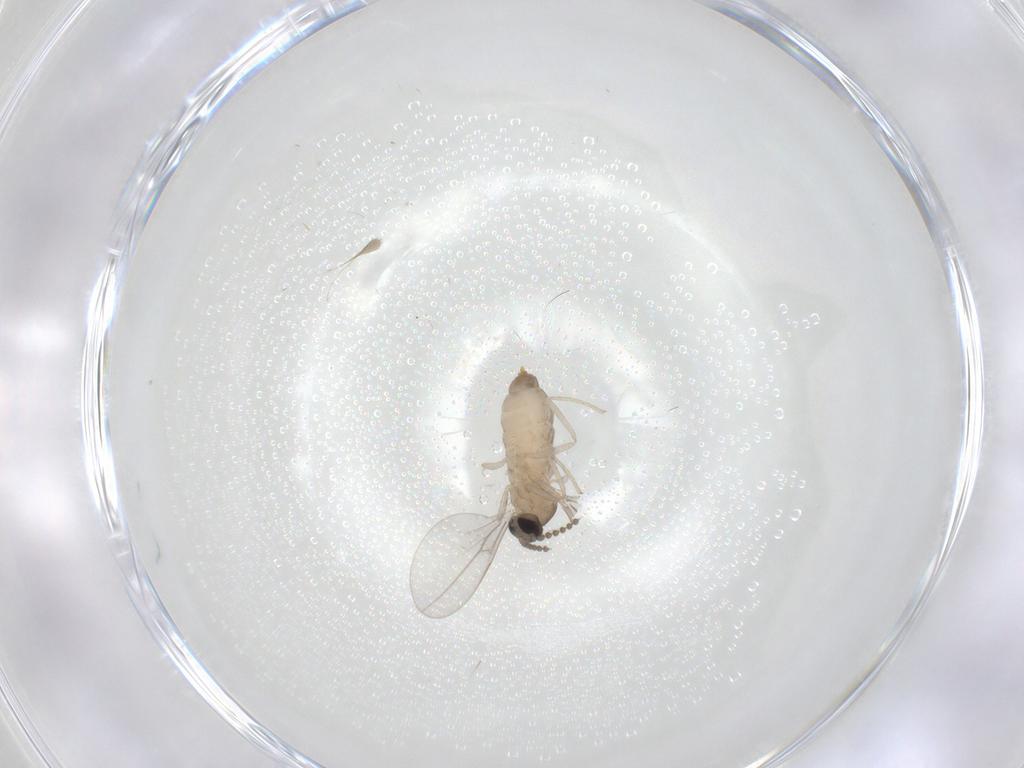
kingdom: Animalia
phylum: Arthropoda
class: Insecta
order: Diptera
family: Cecidomyiidae
